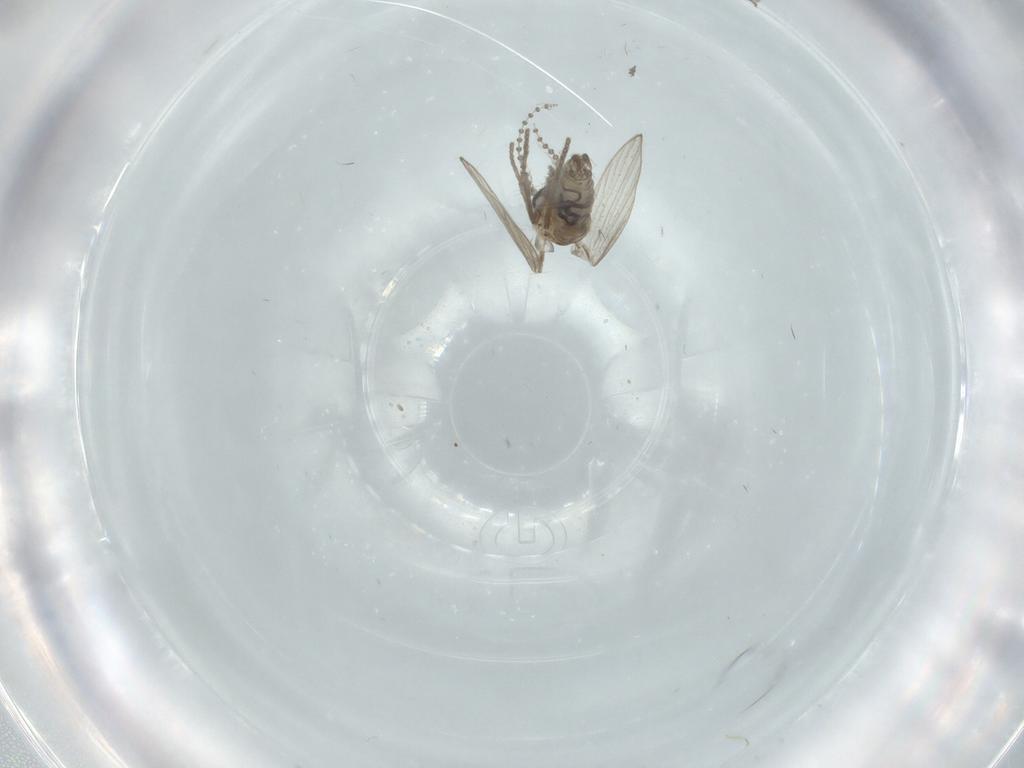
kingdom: Animalia
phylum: Arthropoda
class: Insecta
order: Diptera
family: Psychodidae
